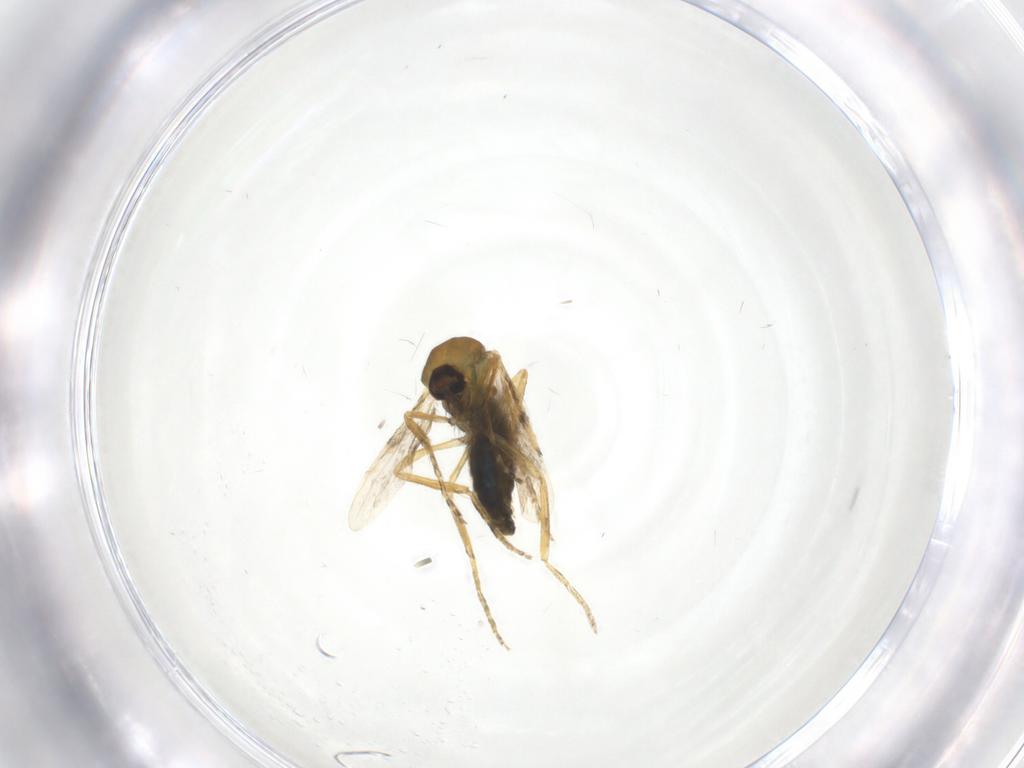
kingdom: Animalia
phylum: Arthropoda
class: Insecta
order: Diptera
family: Ceratopogonidae
